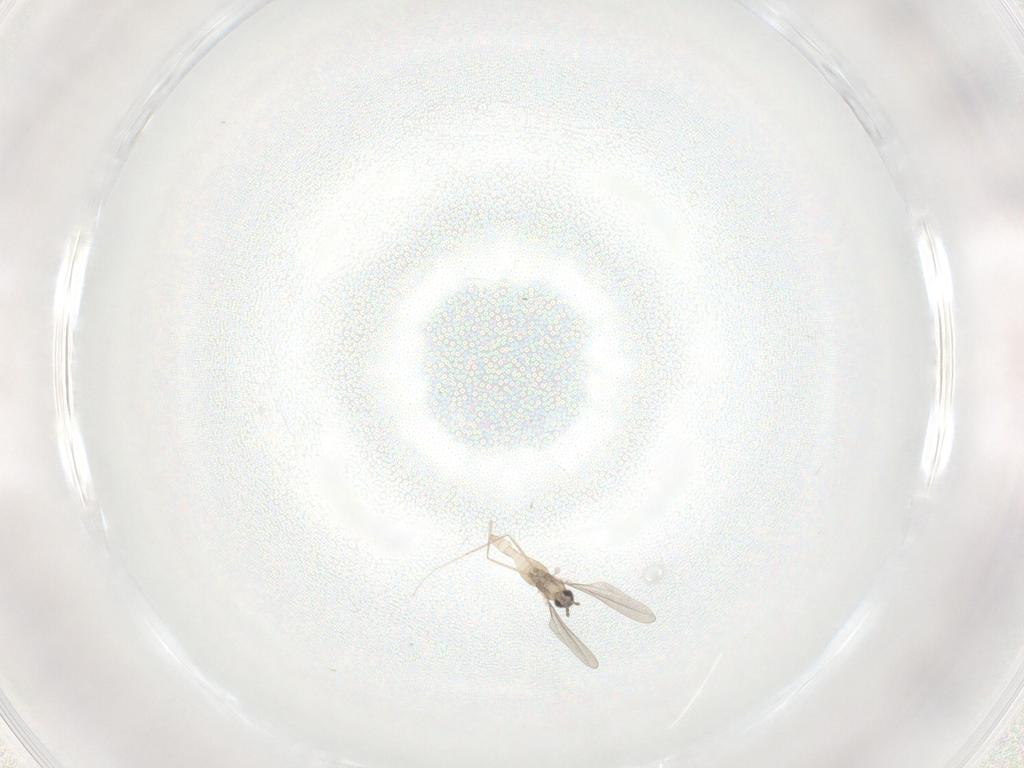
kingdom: Animalia
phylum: Arthropoda
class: Insecta
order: Diptera
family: Cecidomyiidae
